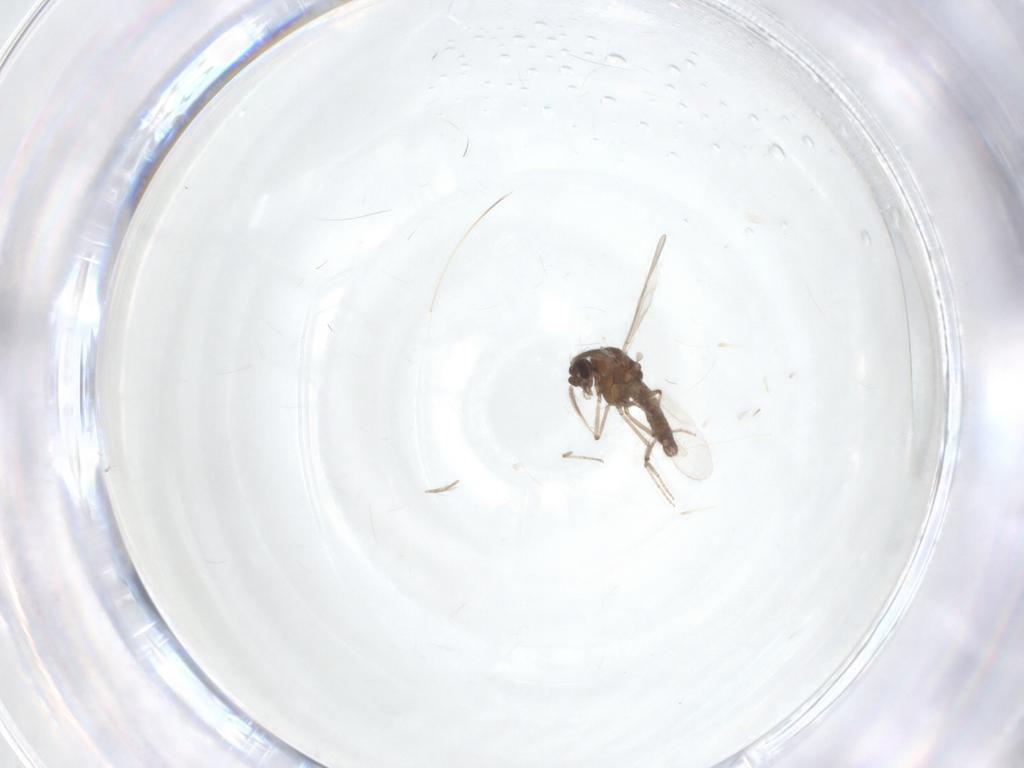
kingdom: Animalia
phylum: Arthropoda
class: Insecta
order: Diptera
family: Ceratopogonidae
